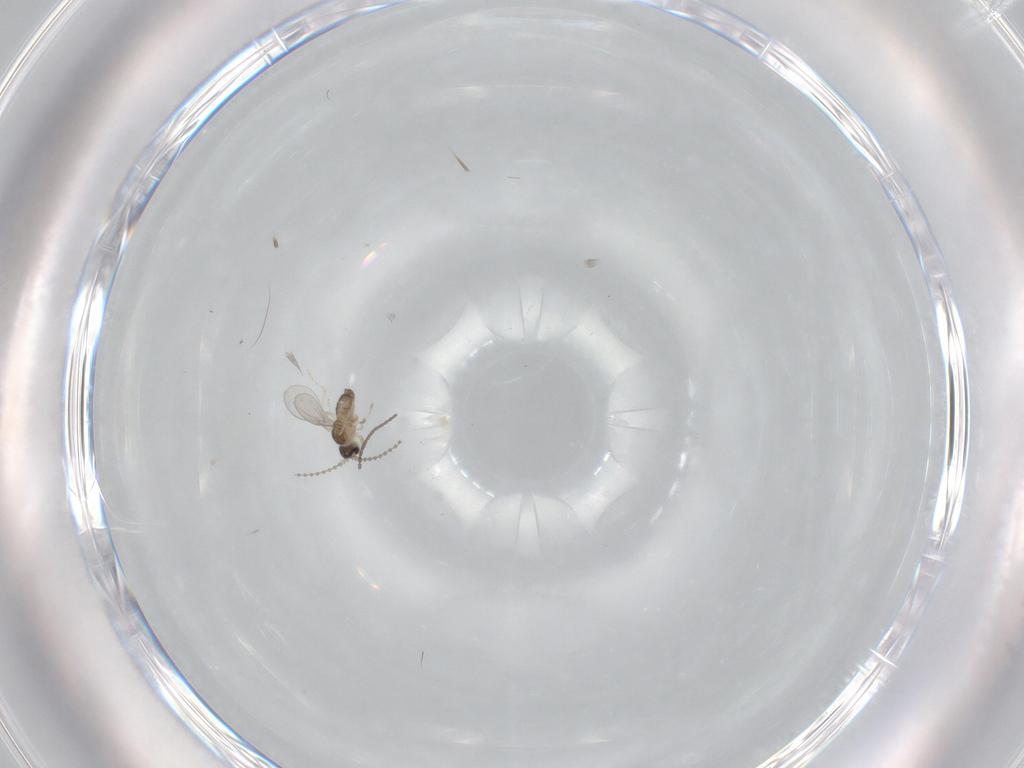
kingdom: Animalia
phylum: Arthropoda
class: Insecta
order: Diptera
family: Cecidomyiidae
